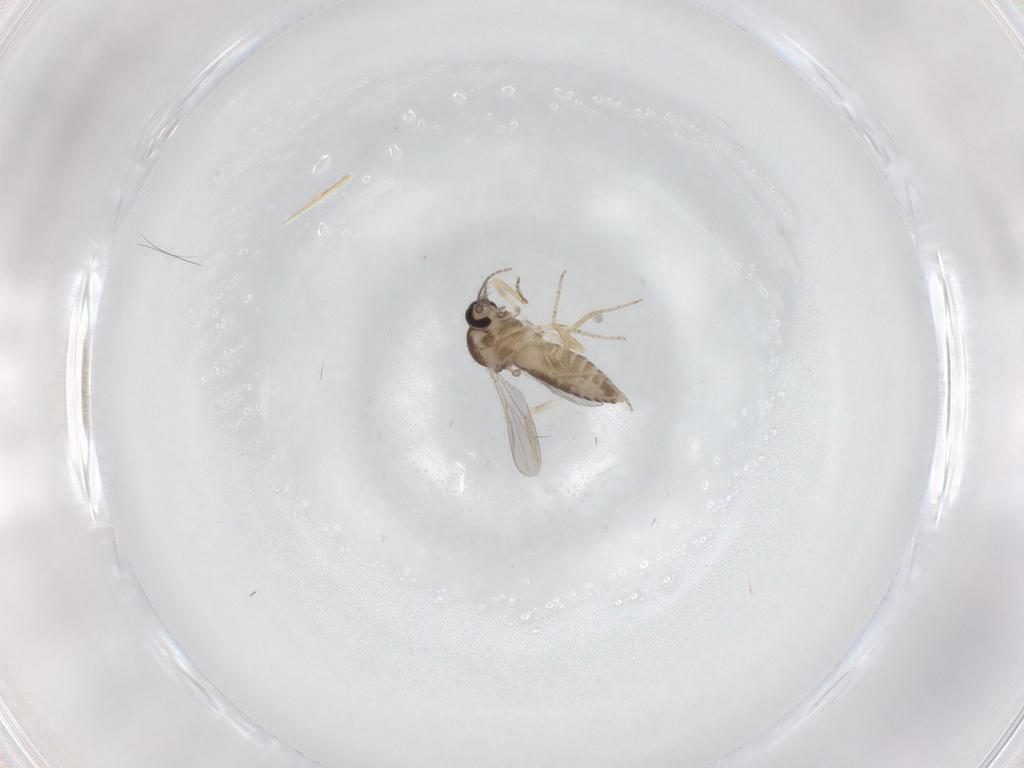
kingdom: Animalia
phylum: Arthropoda
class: Insecta
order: Diptera
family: Ceratopogonidae
